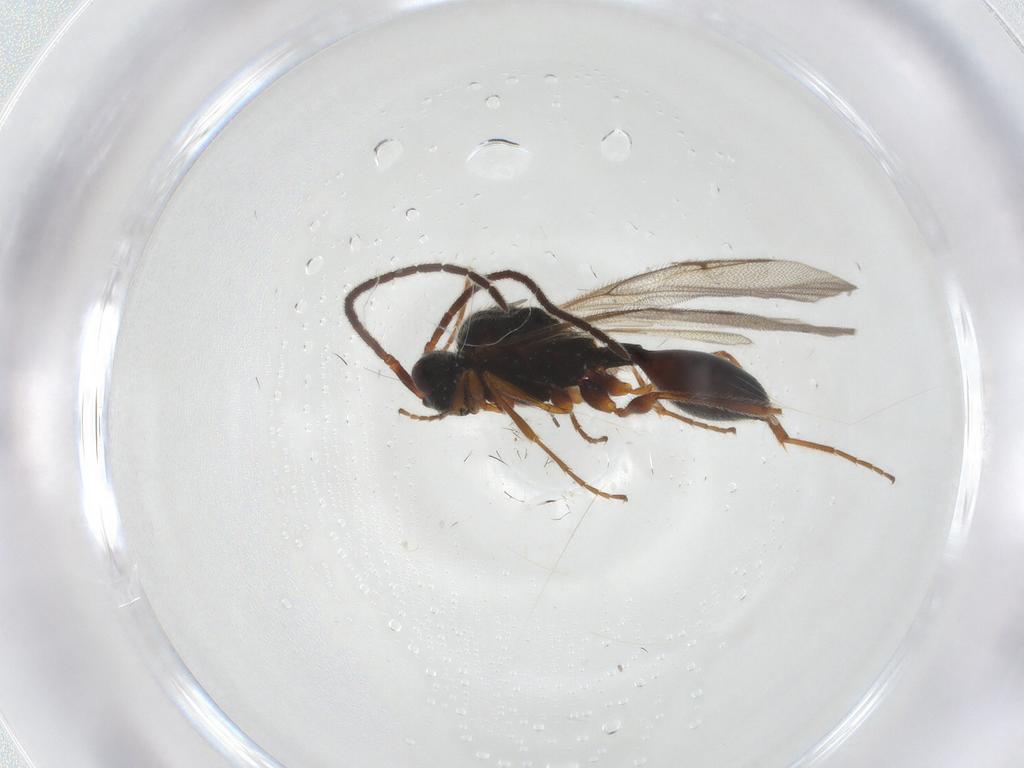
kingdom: Animalia
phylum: Arthropoda
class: Insecta
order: Hymenoptera
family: Diapriidae
